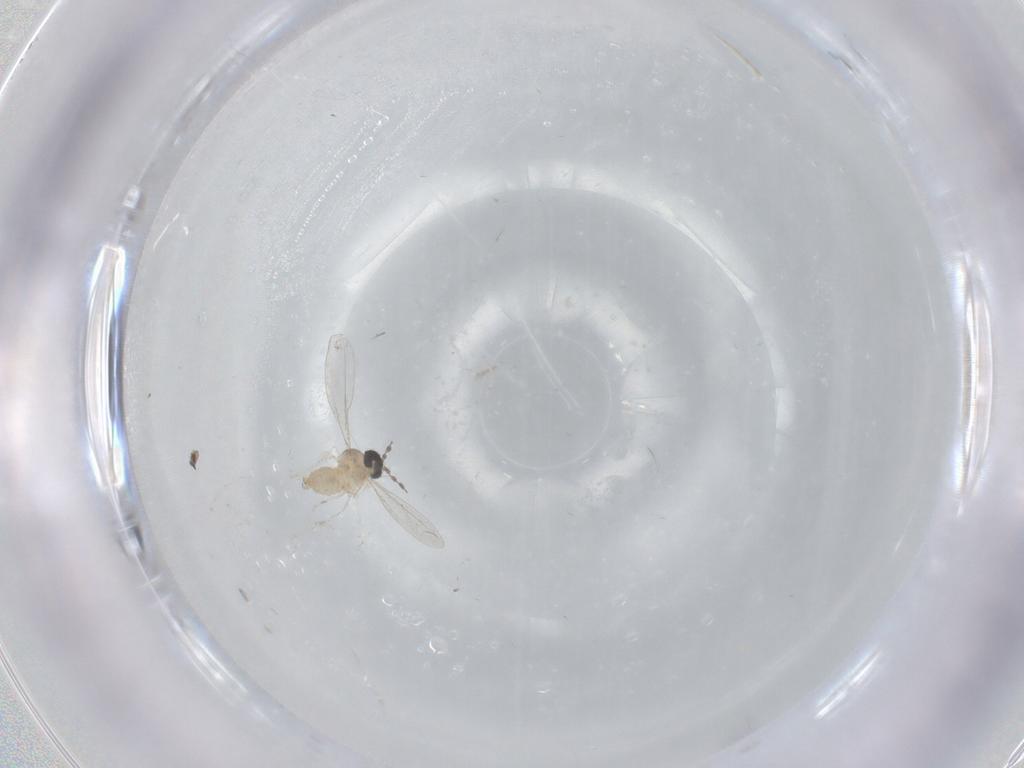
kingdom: Animalia
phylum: Arthropoda
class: Insecta
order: Diptera
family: Cecidomyiidae
